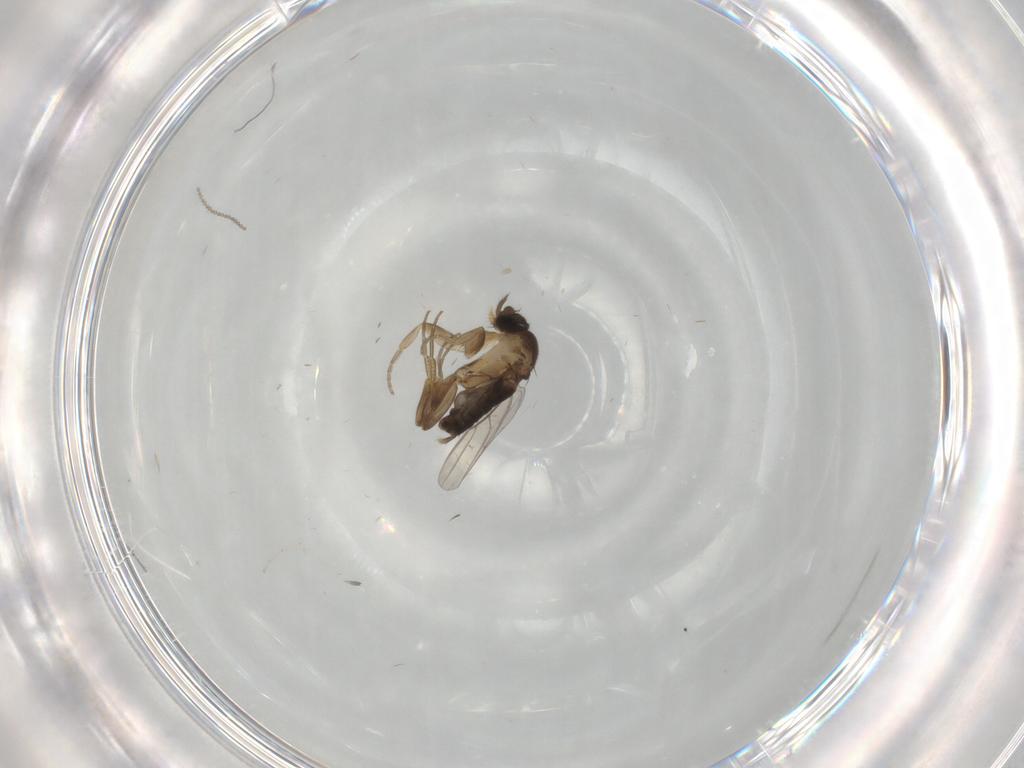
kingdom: Animalia
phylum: Arthropoda
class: Insecta
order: Diptera
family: Phoridae
